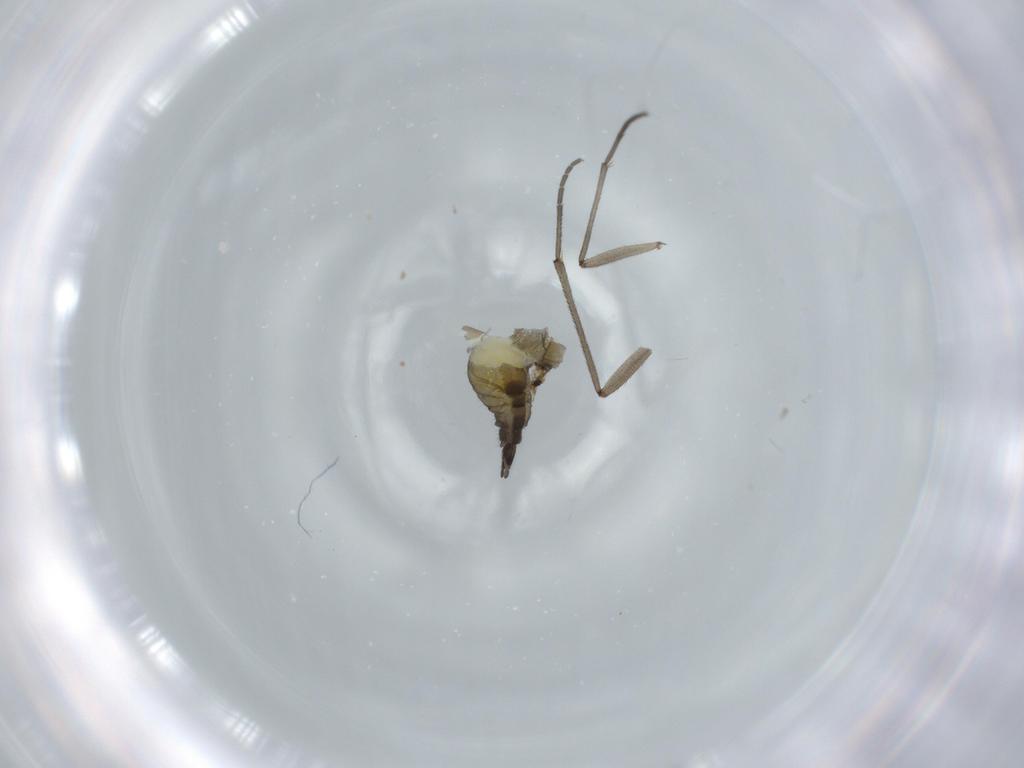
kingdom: Animalia
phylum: Arthropoda
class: Insecta
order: Diptera
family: Sciaridae
